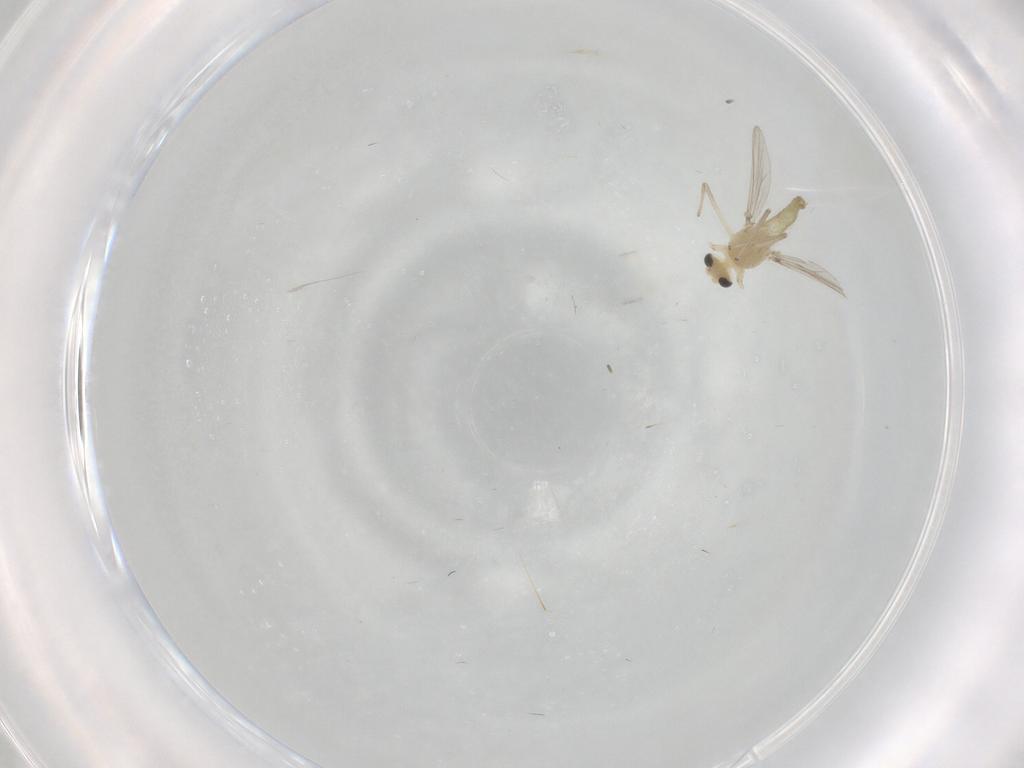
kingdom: Animalia
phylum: Arthropoda
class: Insecta
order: Diptera
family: Chironomidae
